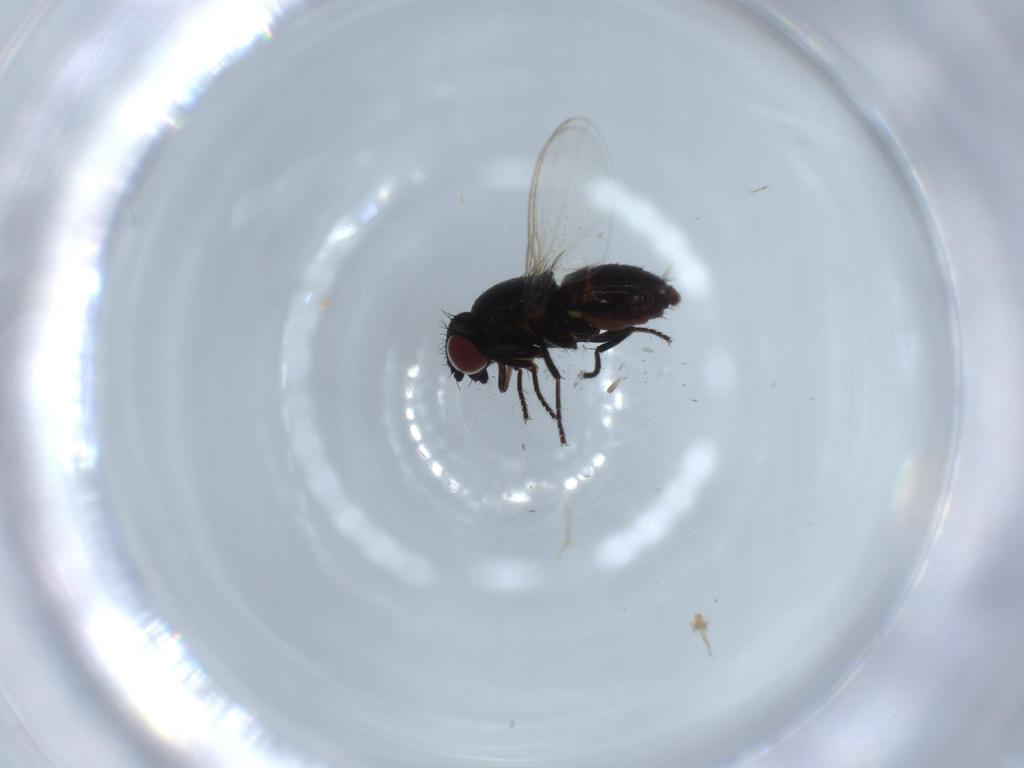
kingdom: Animalia
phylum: Arthropoda
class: Insecta
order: Diptera
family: Milichiidae
